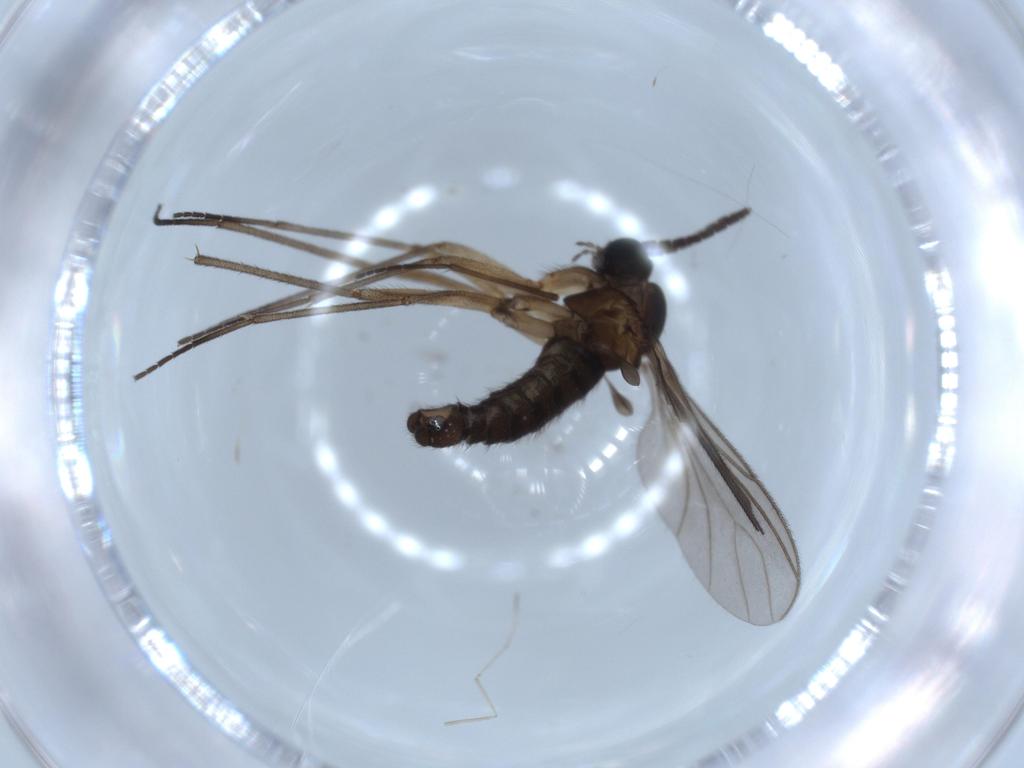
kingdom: Animalia
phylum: Arthropoda
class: Insecta
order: Diptera
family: Sciaridae
